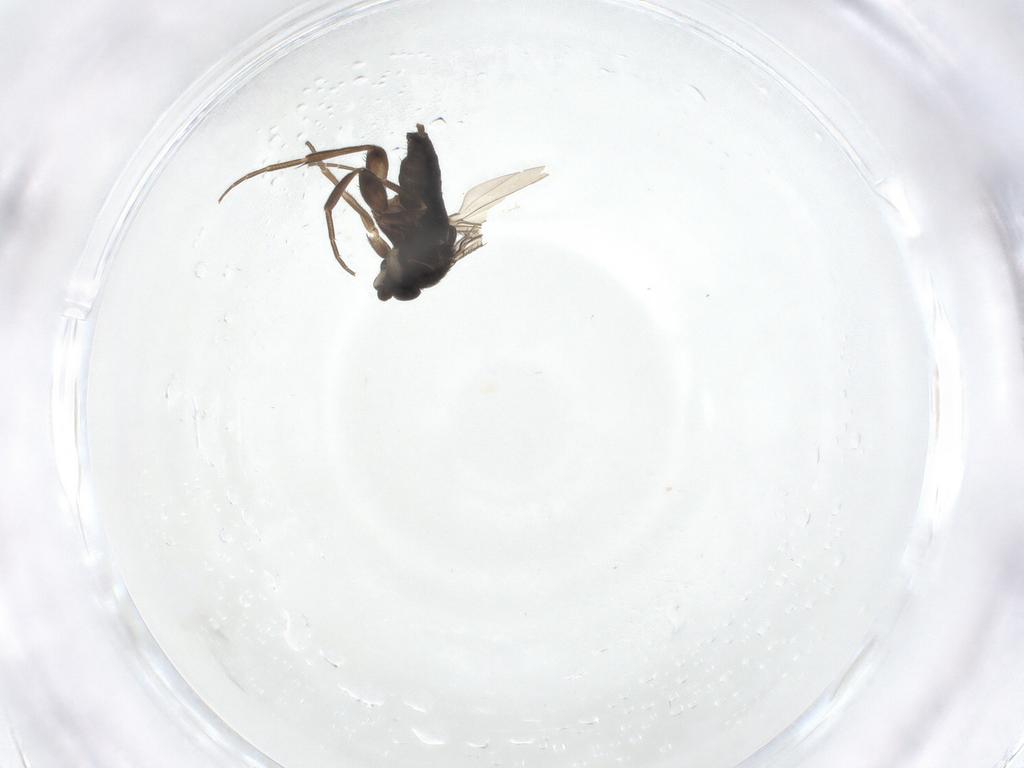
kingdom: Animalia
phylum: Arthropoda
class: Insecta
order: Diptera
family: Phoridae
